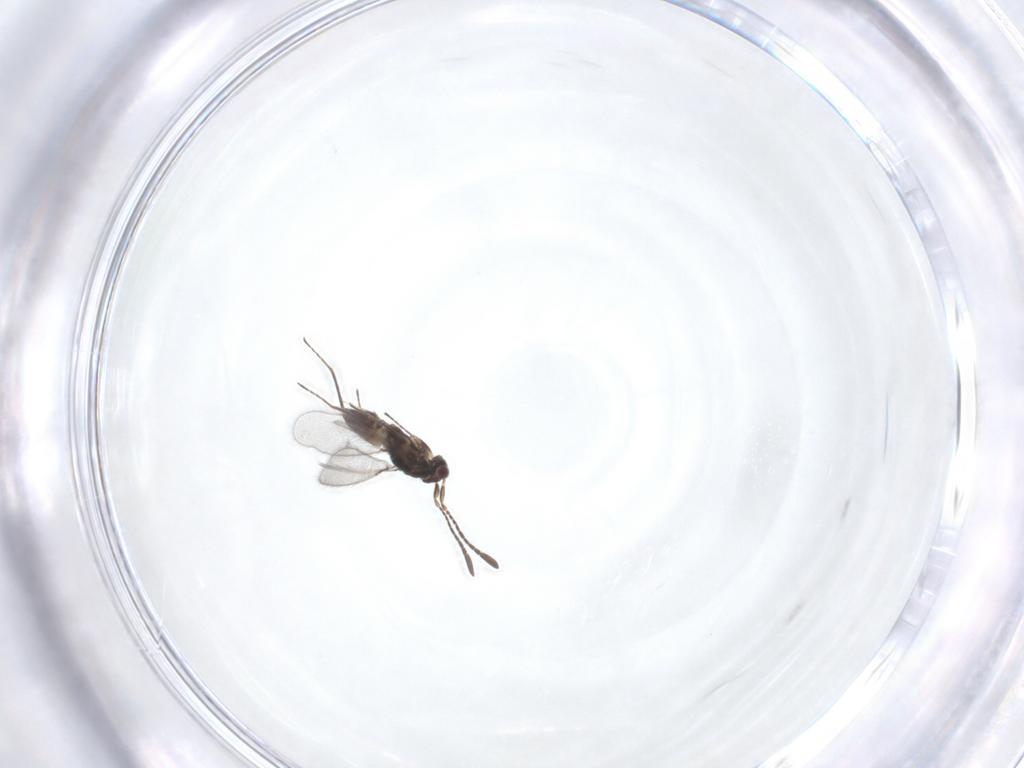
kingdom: Animalia
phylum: Arthropoda
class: Insecta
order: Hymenoptera
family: Mymaridae
